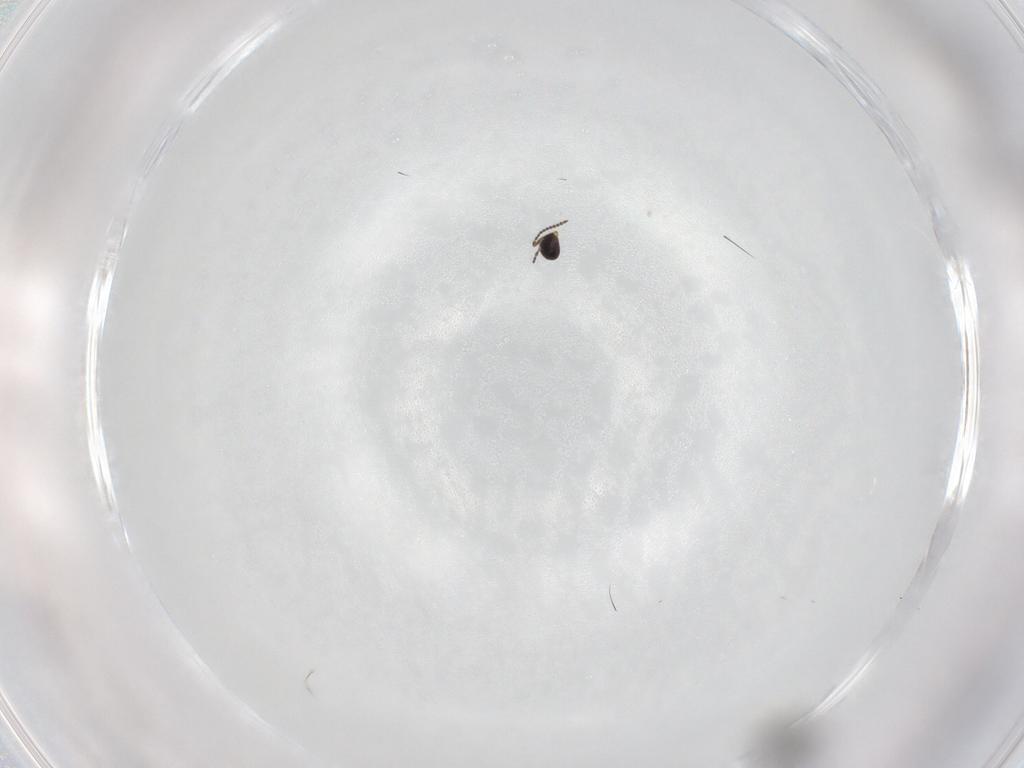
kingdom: Animalia
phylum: Arthropoda
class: Insecta
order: Hymenoptera
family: Scelionidae
